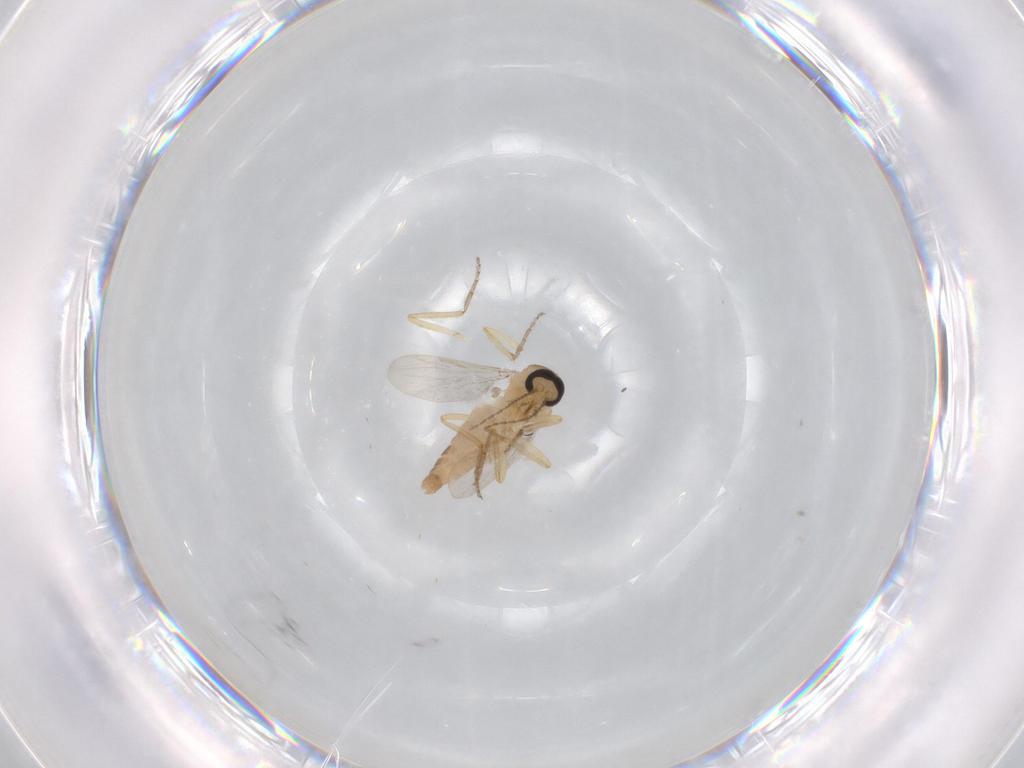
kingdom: Animalia
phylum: Arthropoda
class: Insecta
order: Diptera
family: Ceratopogonidae
